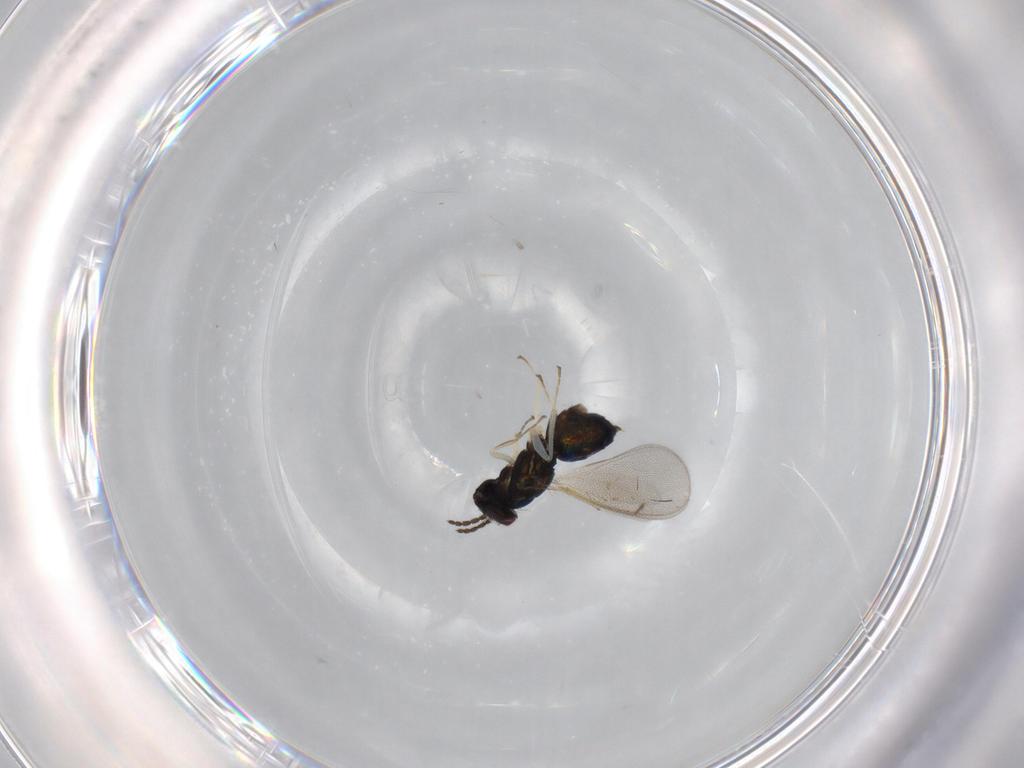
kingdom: Animalia
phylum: Arthropoda
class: Insecta
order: Hymenoptera
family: Eulophidae
